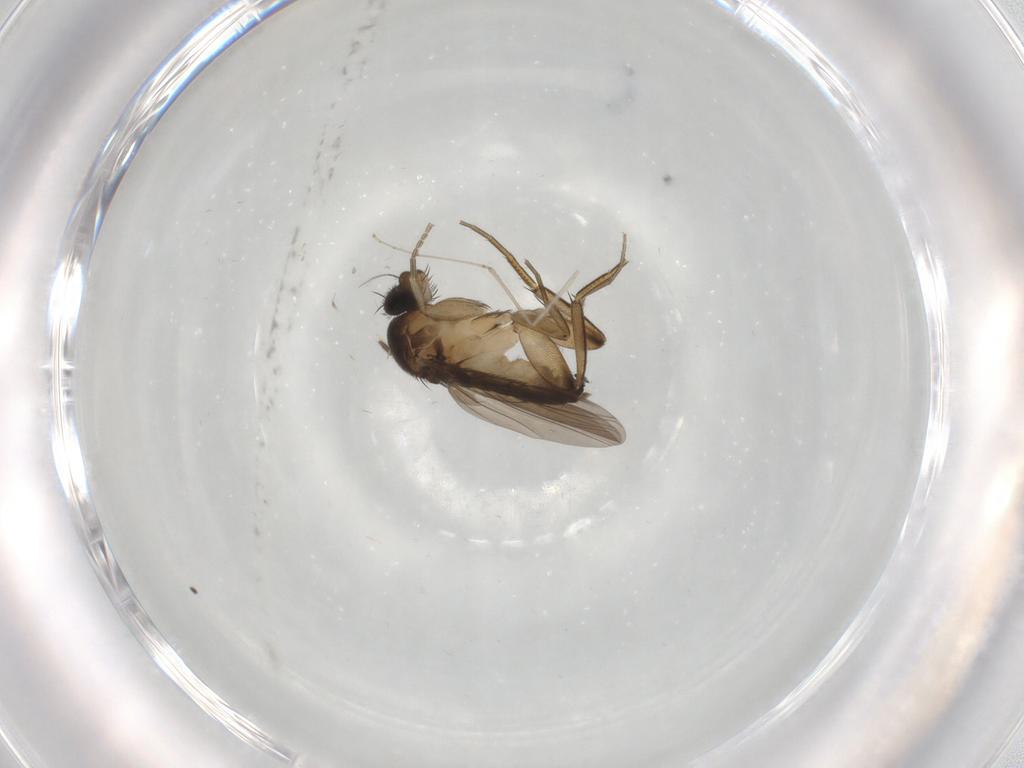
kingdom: Animalia
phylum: Arthropoda
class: Insecta
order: Diptera
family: Phoridae
